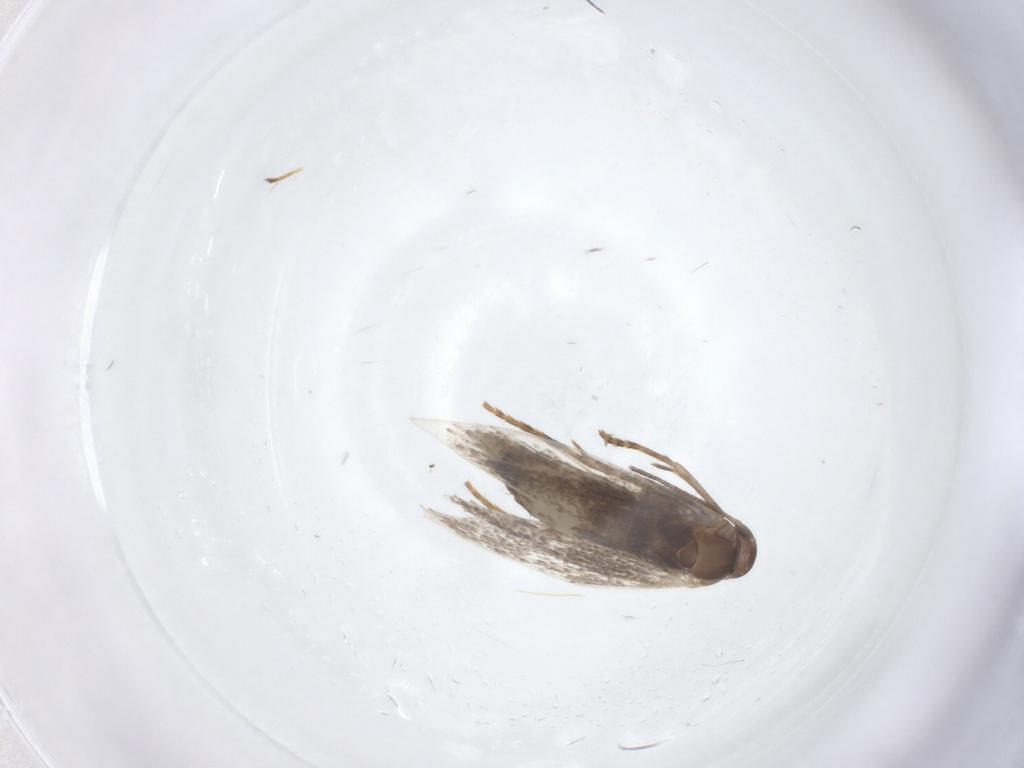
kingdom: Animalia
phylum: Arthropoda
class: Insecta
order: Lepidoptera
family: Elachistidae
